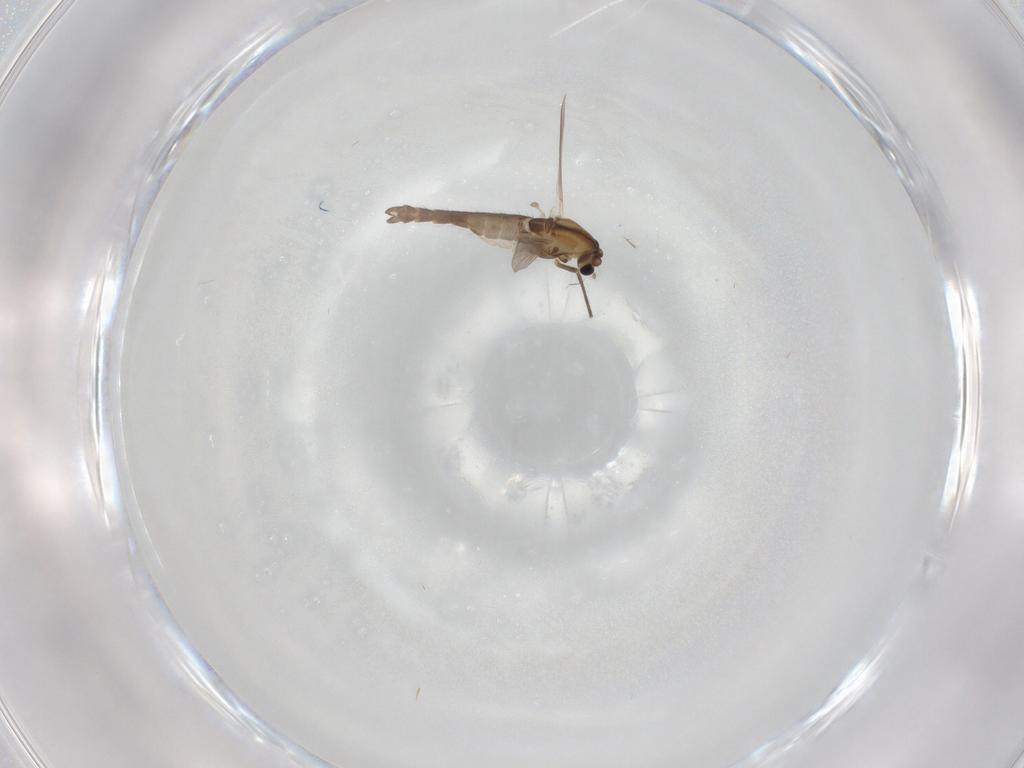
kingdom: Animalia
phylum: Arthropoda
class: Insecta
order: Diptera
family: Chironomidae
